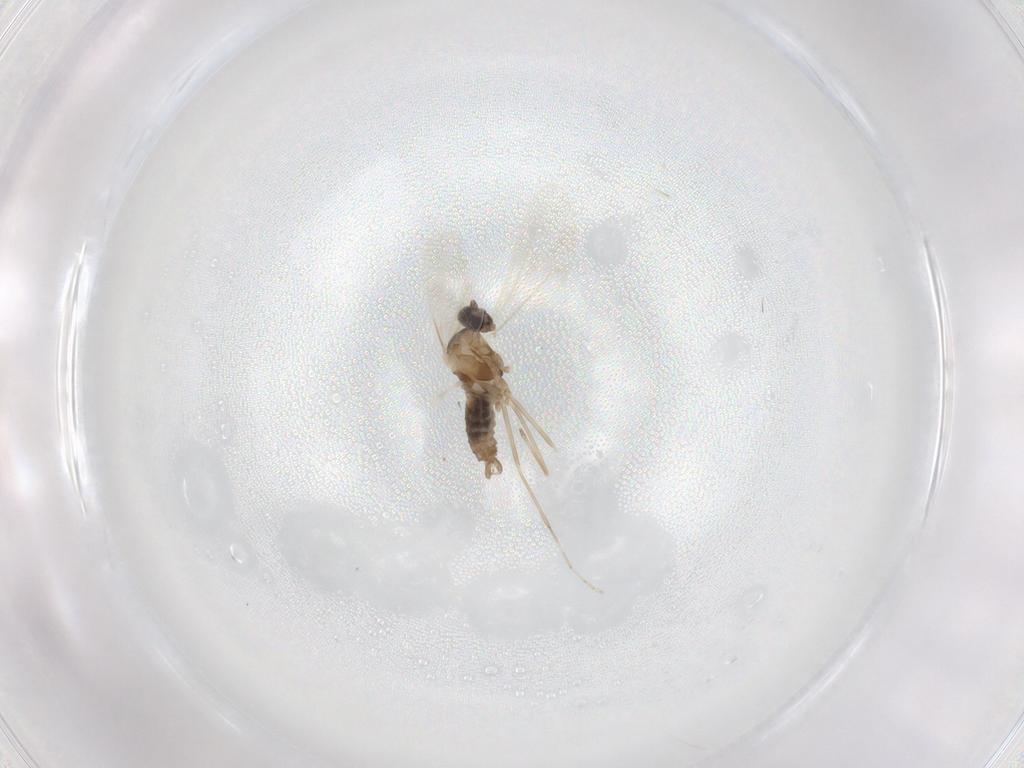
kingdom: Animalia
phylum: Arthropoda
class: Insecta
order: Diptera
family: Cecidomyiidae
